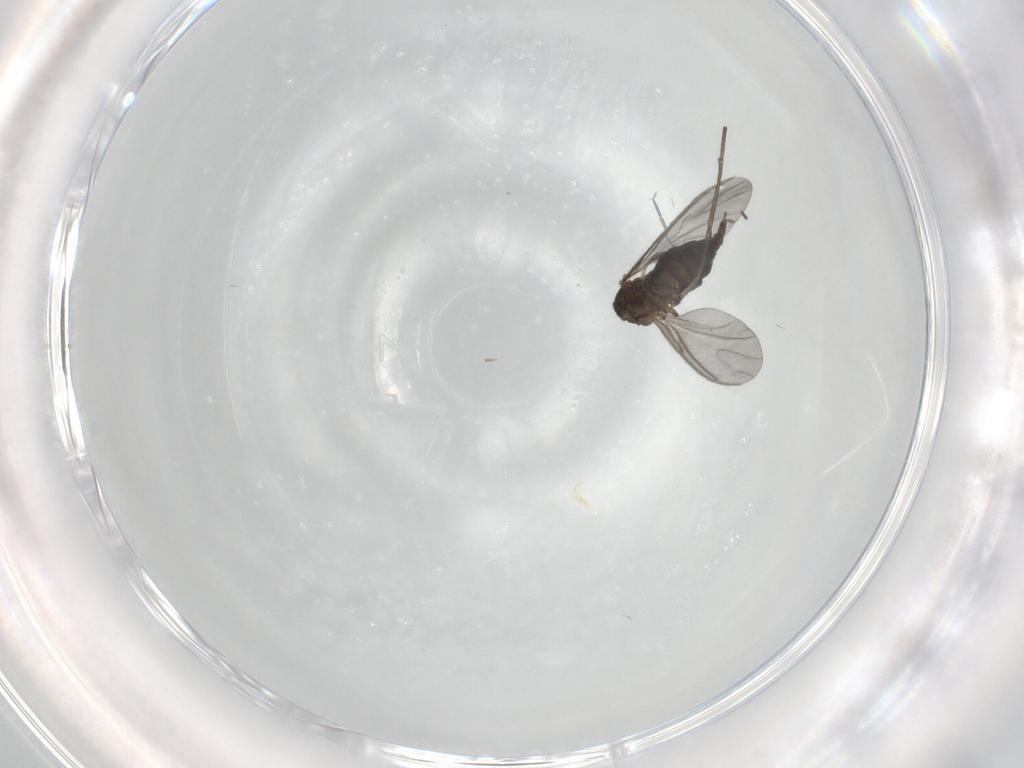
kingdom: Animalia
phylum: Arthropoda
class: Insecta
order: Diptera
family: Sciaridae
